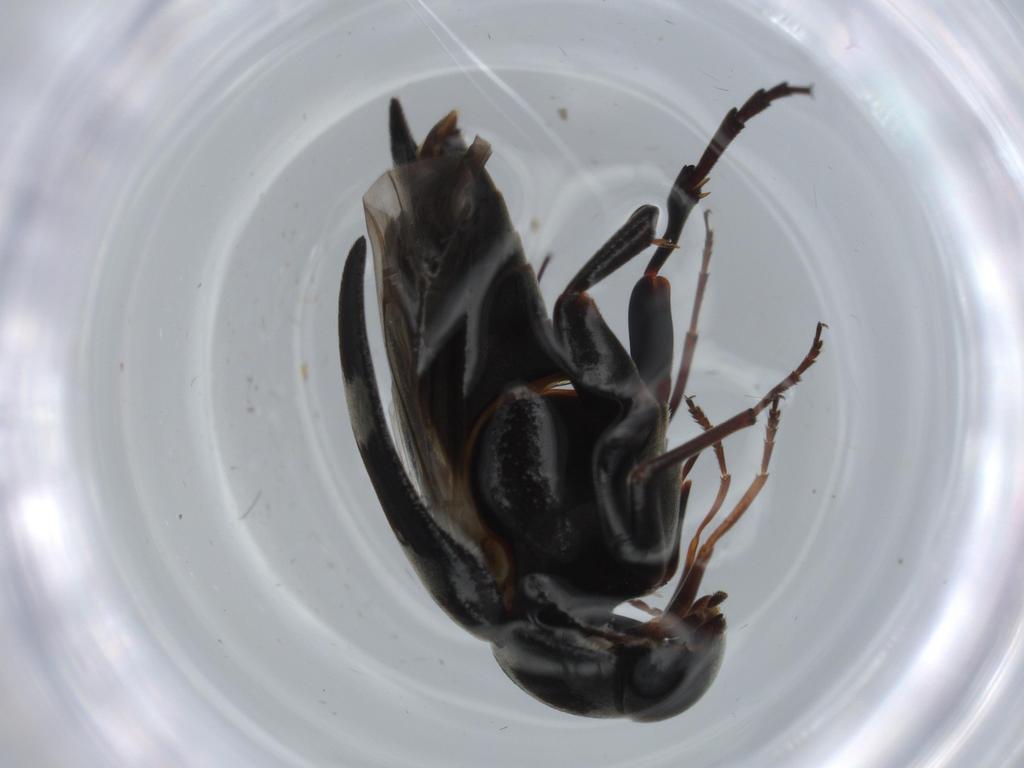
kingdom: Animalia
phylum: Arthropoda
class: Insecta
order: Coleoptera
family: Mordellidae
